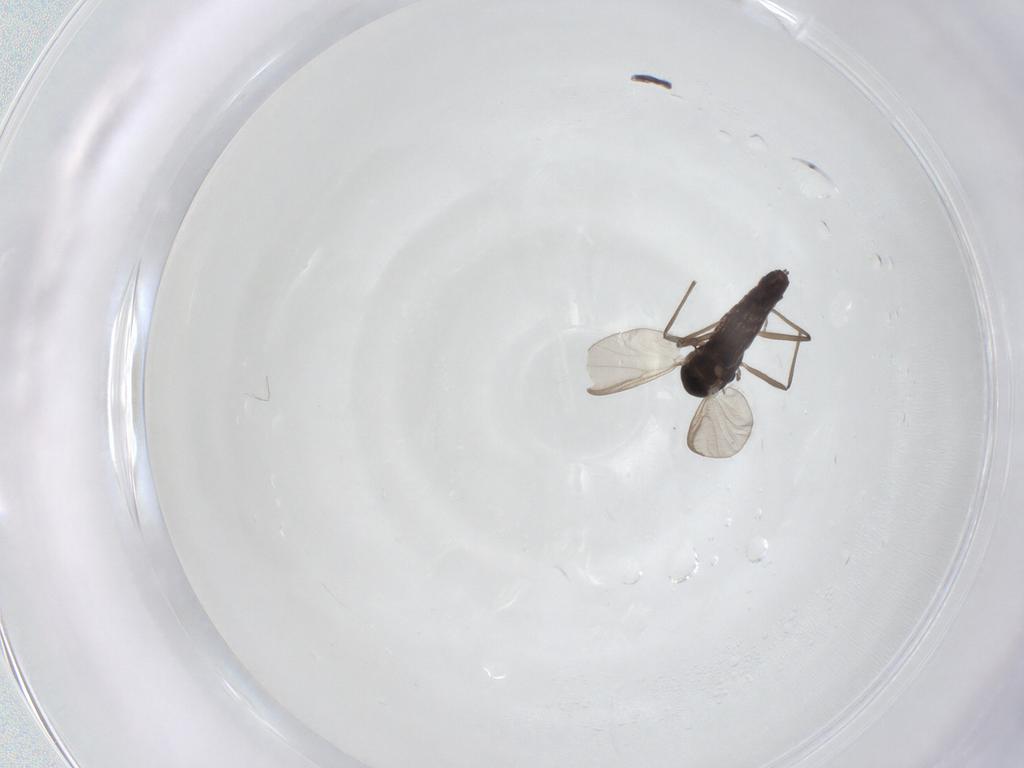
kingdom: Animalia
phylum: Arthropoda
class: Insecta
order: Diptera
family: Chironomidae
